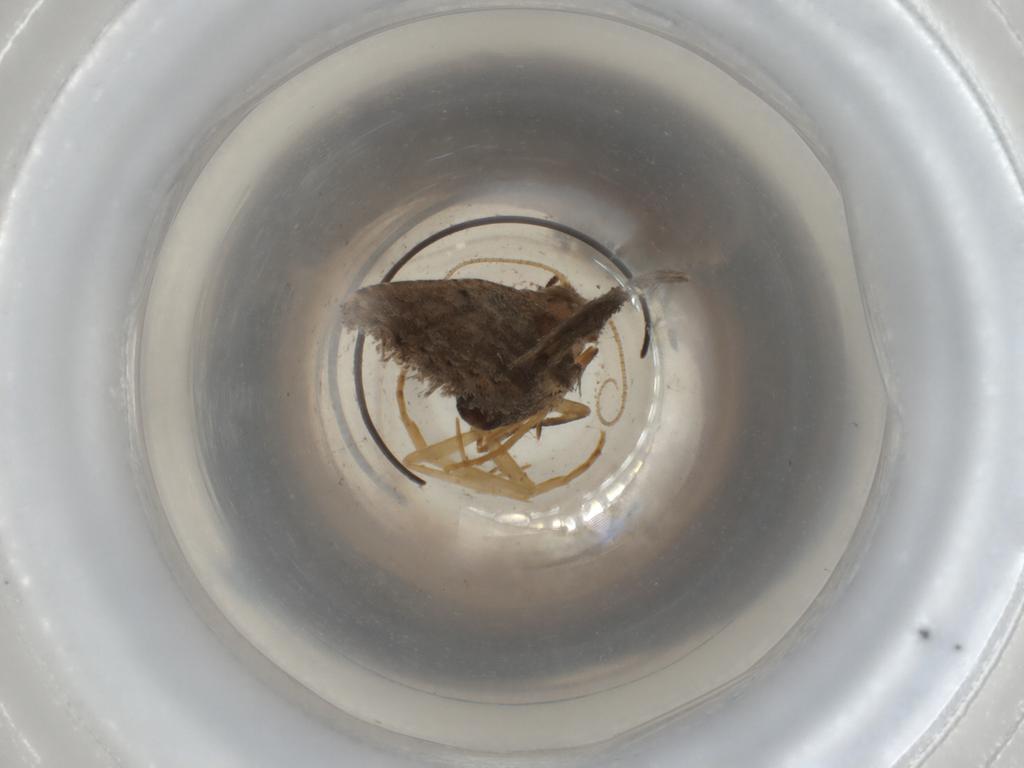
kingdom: Animalia
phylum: Arthropoda
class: Insecta
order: Lepidoptera
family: Erebidae
